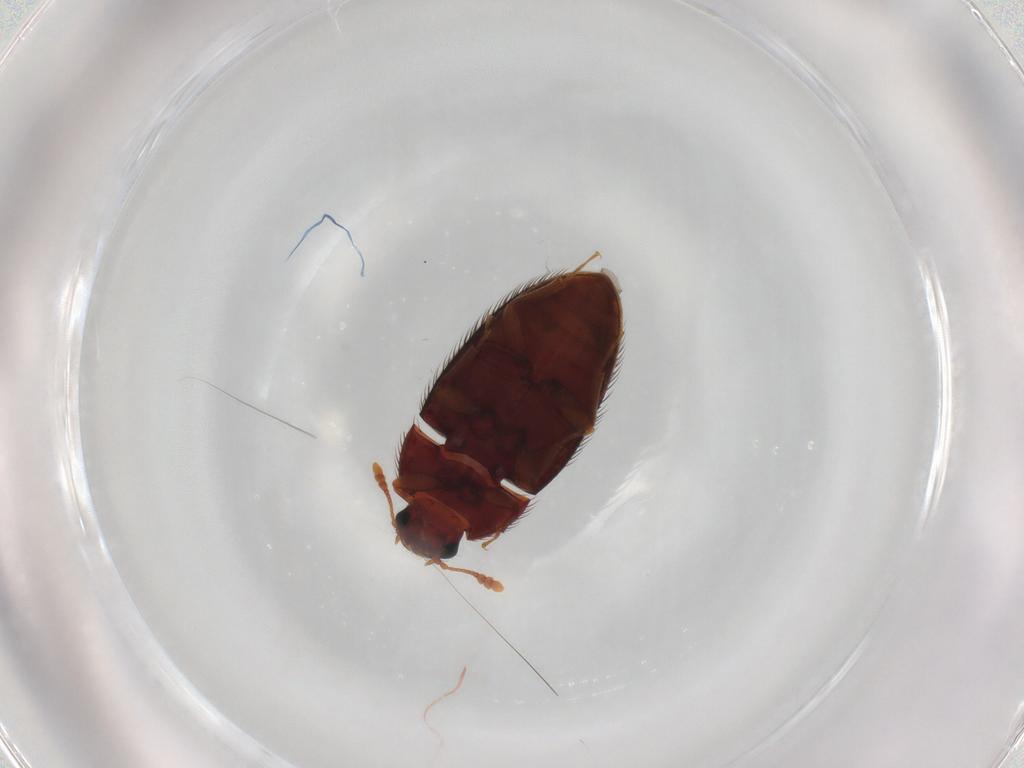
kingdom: Animalia
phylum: Arthropoda
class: Insecta
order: Coleoptera
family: Biphyllidae
